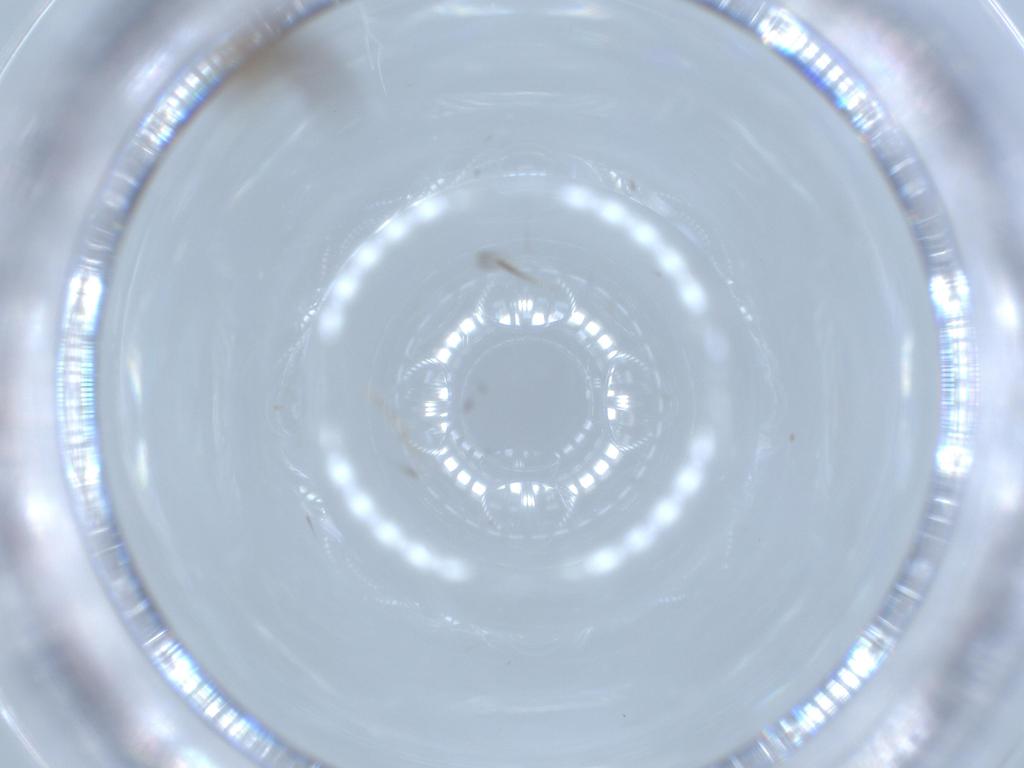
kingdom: Animalia
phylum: Arthropoda
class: Insecta
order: Diptera
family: Chironomidae
